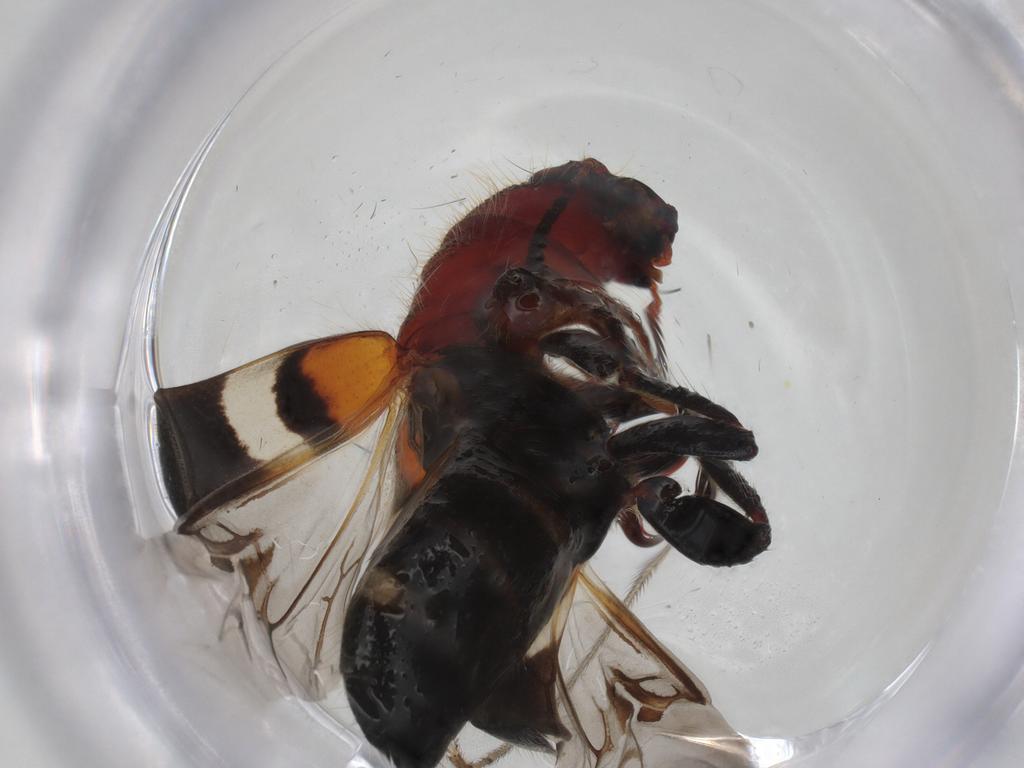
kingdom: Animalia
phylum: Arthropoda
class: Insecta
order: Coleoptera
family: Cleridae
